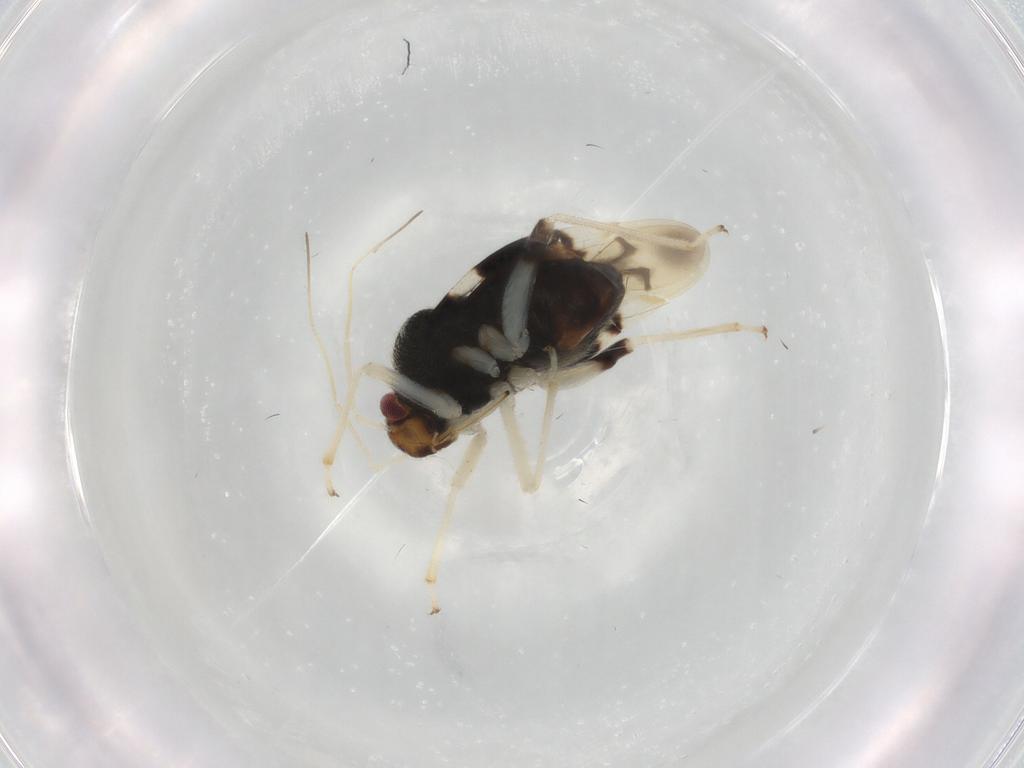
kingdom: Animalia
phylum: Arthropoda
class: Insecta
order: Hemiptera
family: Miridae
